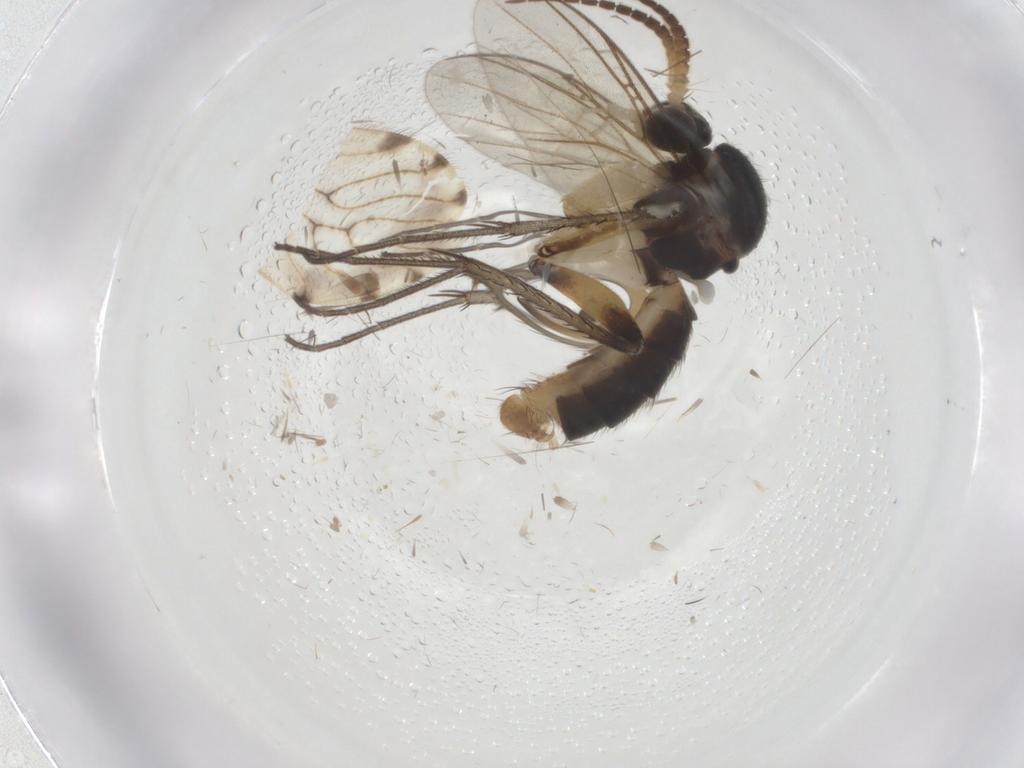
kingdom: Animalia
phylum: Arthropoda
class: Insecta
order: Diptera
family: Mycetophilidae
